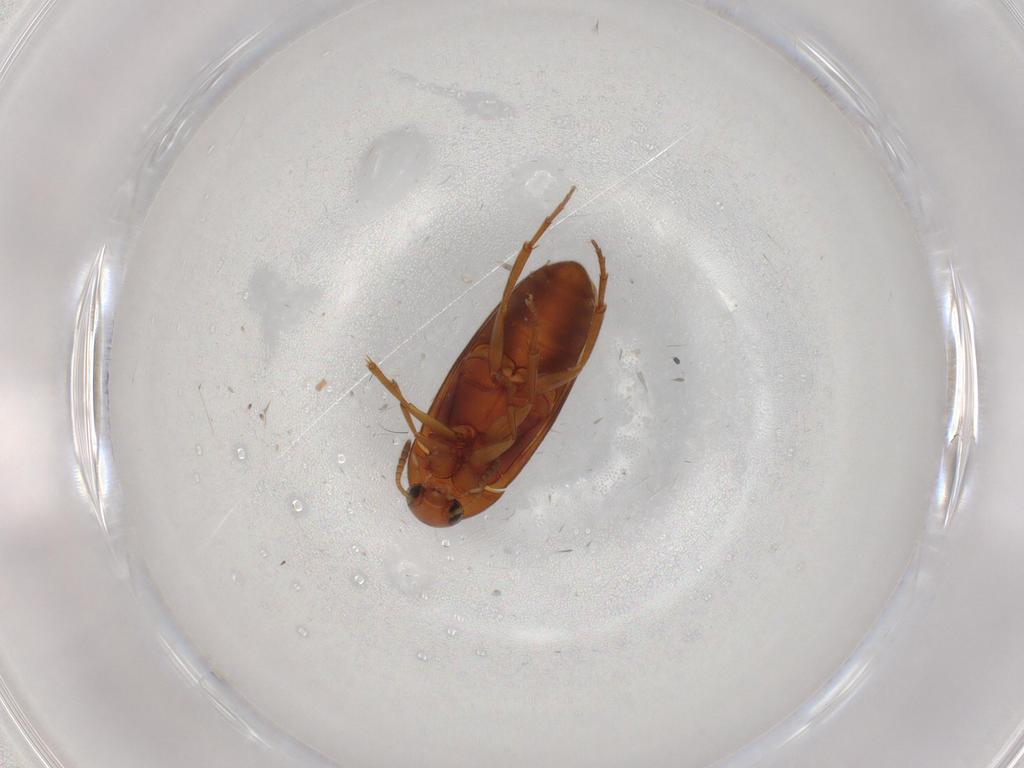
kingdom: Animalia
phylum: Arthropoda
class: Insecta
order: Coleoptera
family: Scraptiidae
